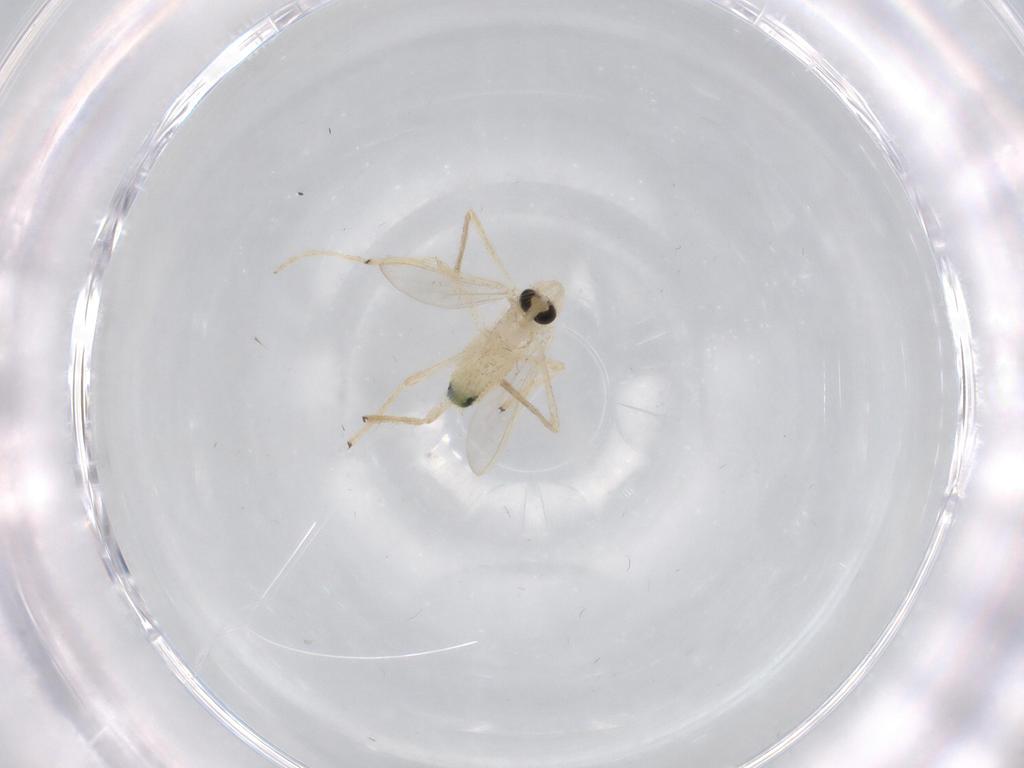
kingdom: Animalia
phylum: Arthropoda
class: Insecta
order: Diptera
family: Chironomidae
